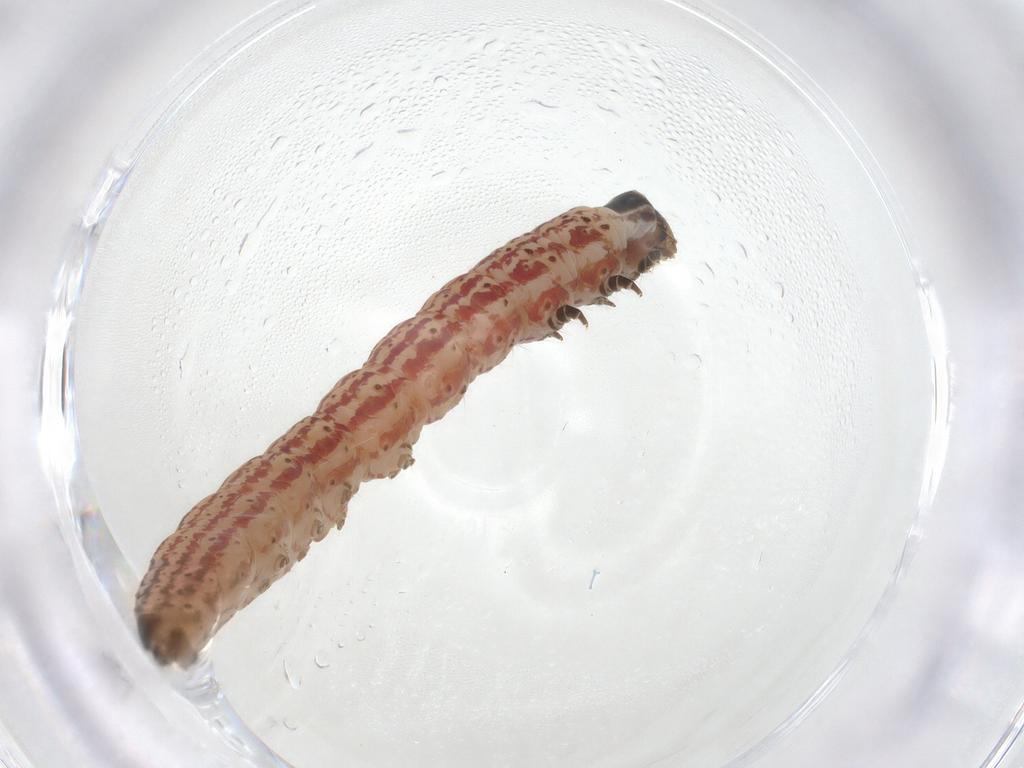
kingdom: Animalia
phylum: Arthropoda
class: Insecta
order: Lepidoptera
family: Gelechiidae
